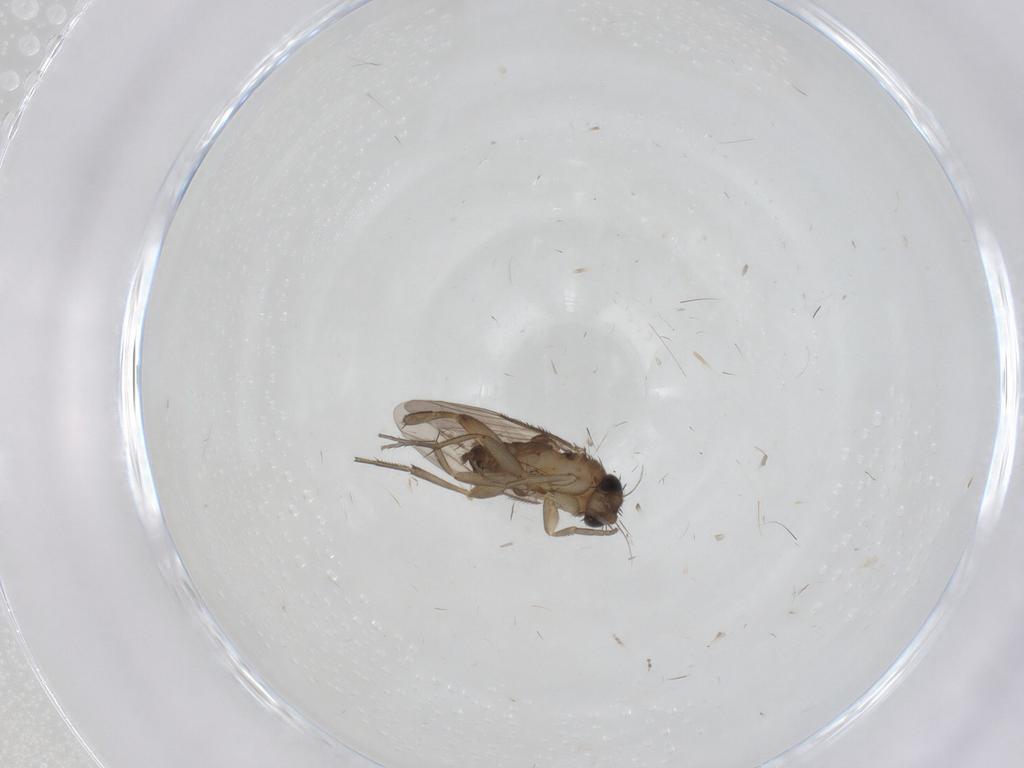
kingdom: Animalia
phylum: Arthropoda
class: Insecta
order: Diptera
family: Phoridae
